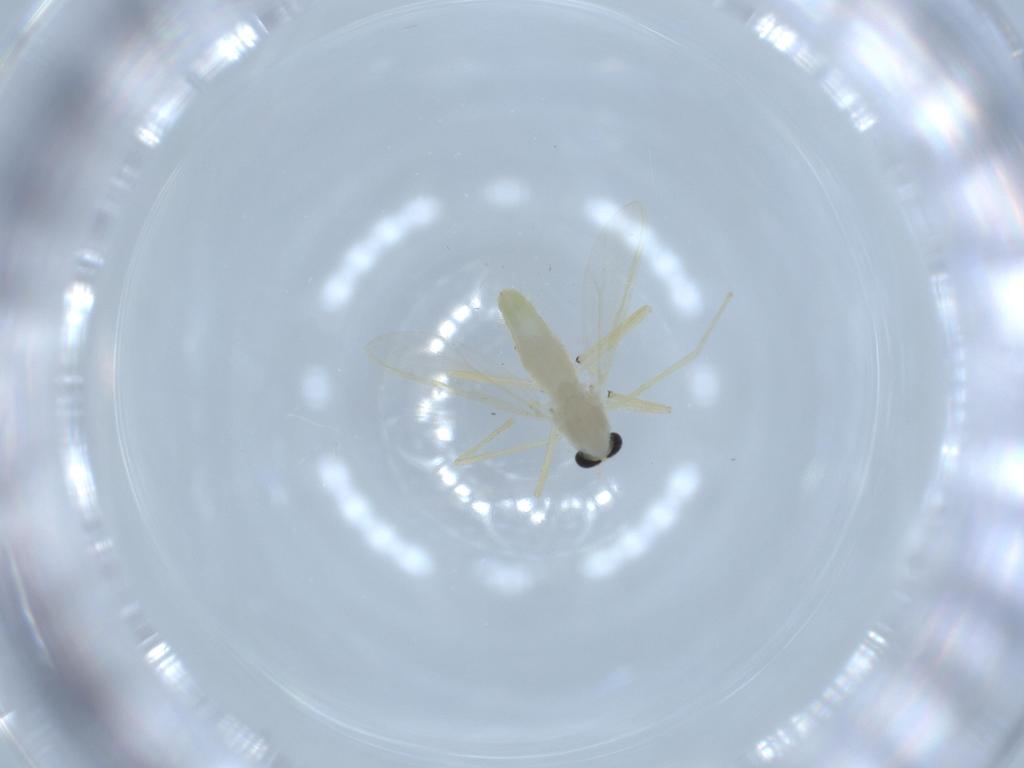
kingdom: Animalia
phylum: Arthropoda
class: Insecta
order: Diptera
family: Chironomidae
